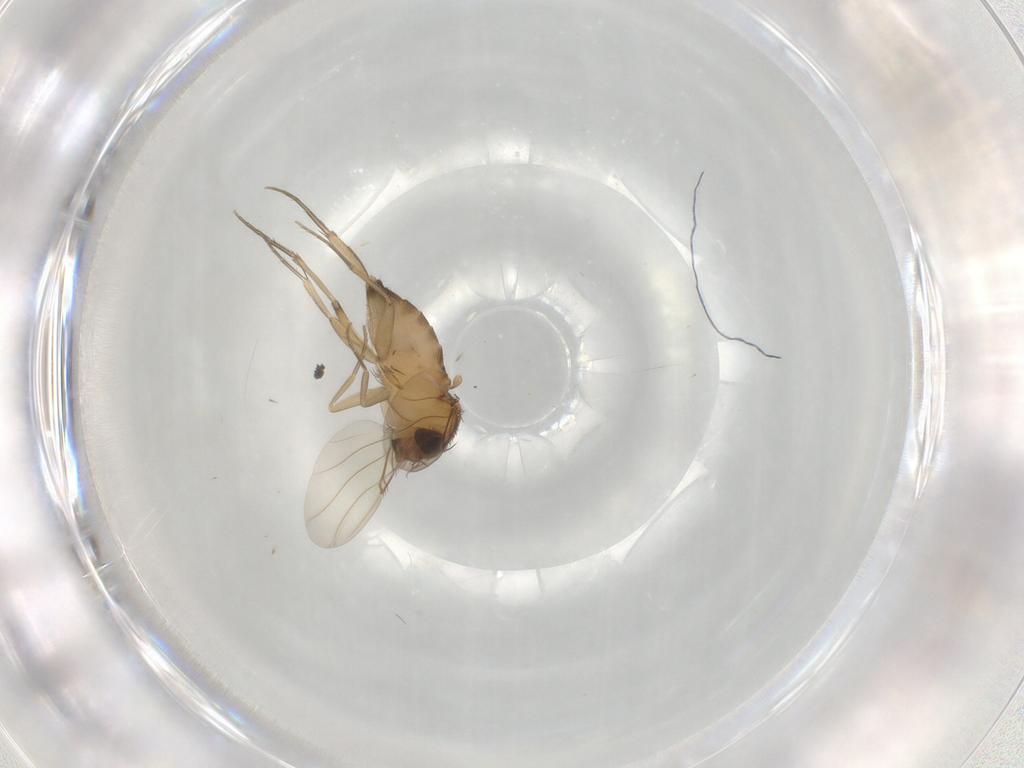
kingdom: Animalia
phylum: Arthropoda
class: Insecta
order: Diptera
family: Phoridae
